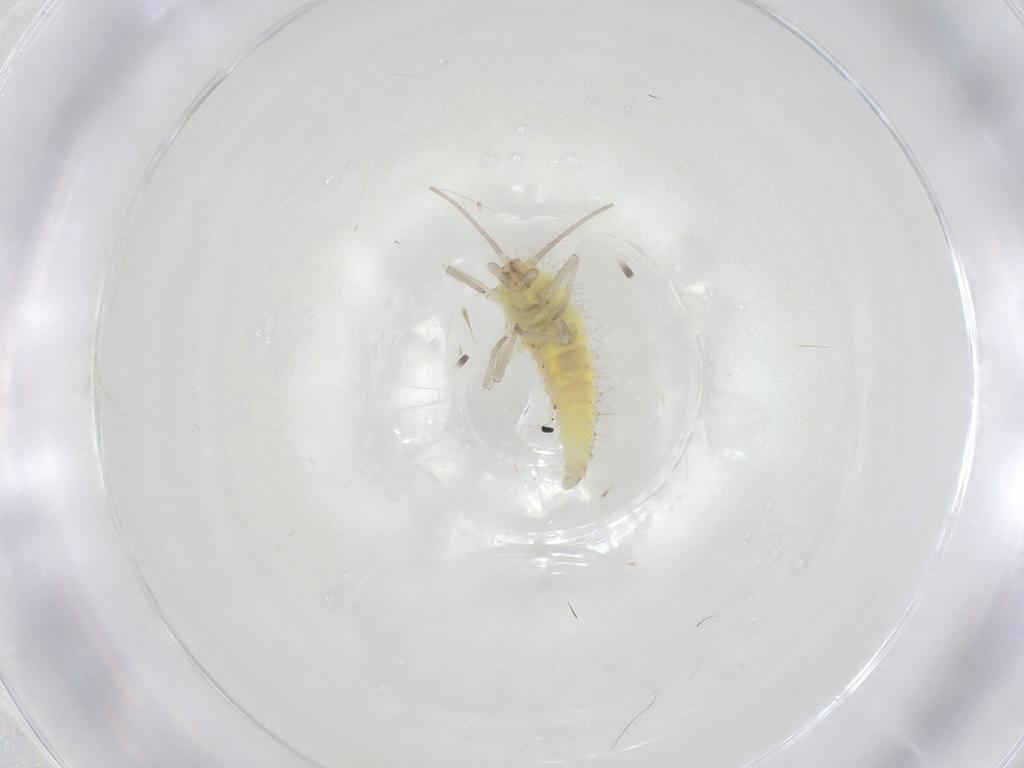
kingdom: Animalia
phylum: Arthropoda
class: Insecta
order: Neuroptera
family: Coniopterygidae
